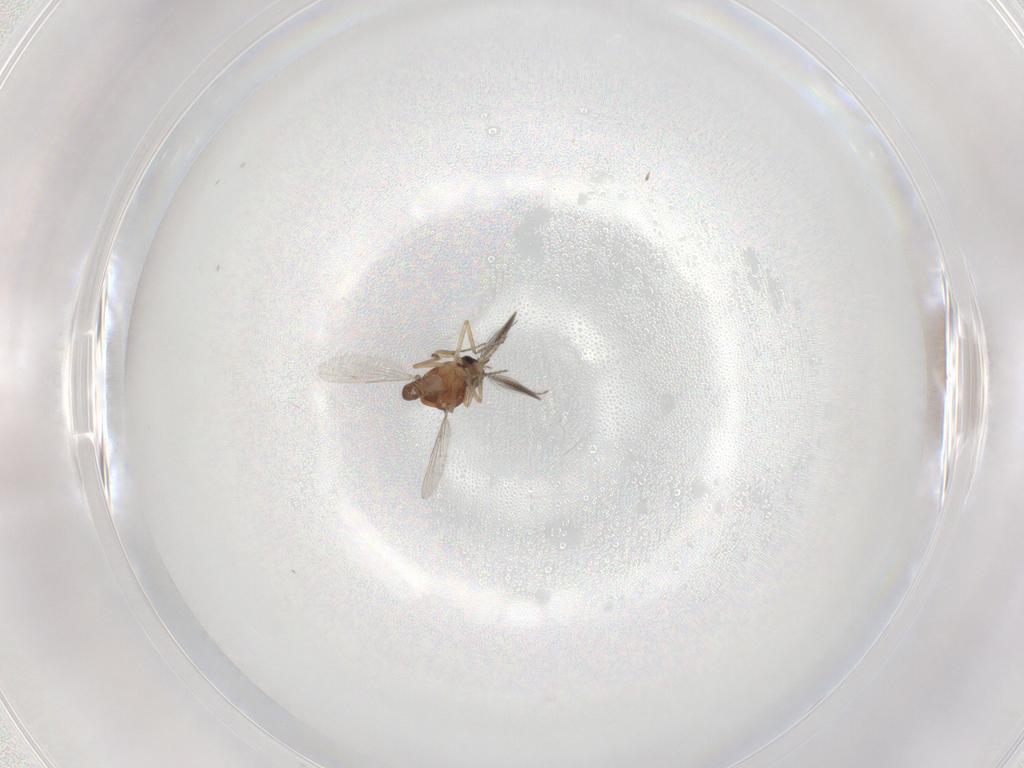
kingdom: Animalia
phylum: Arthropoda
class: Insecta
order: Diptera
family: Ceratopogonidae
